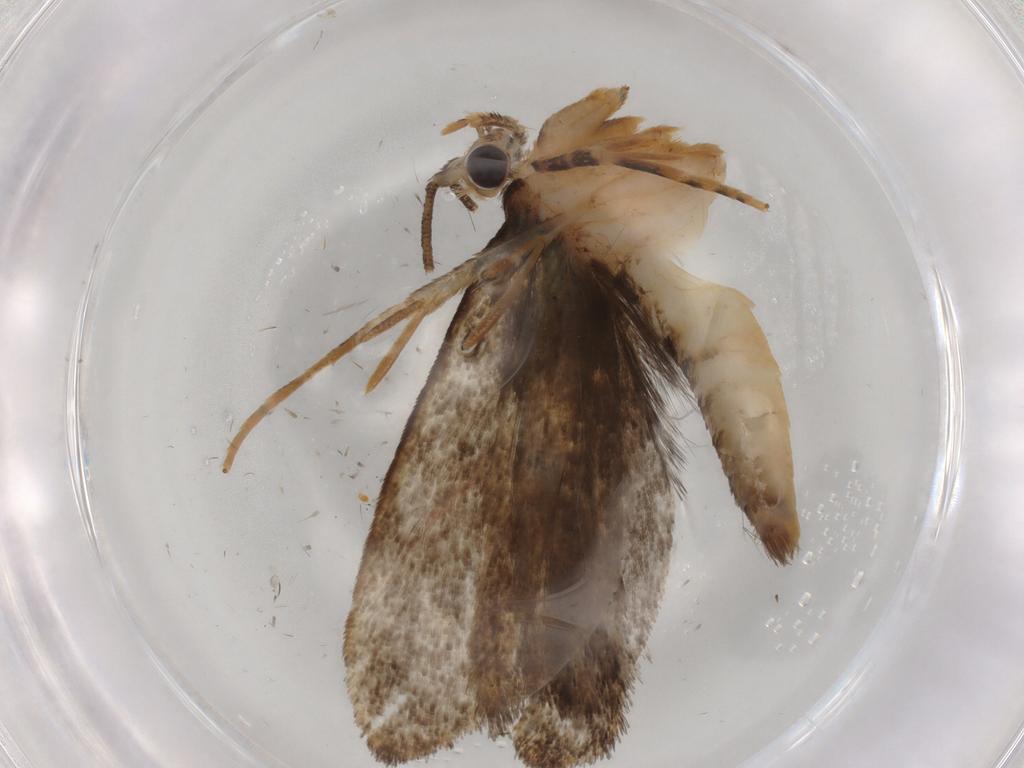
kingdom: Animalia
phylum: Arthropoda
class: Insecta
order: Lepidoptera
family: Tineidae
